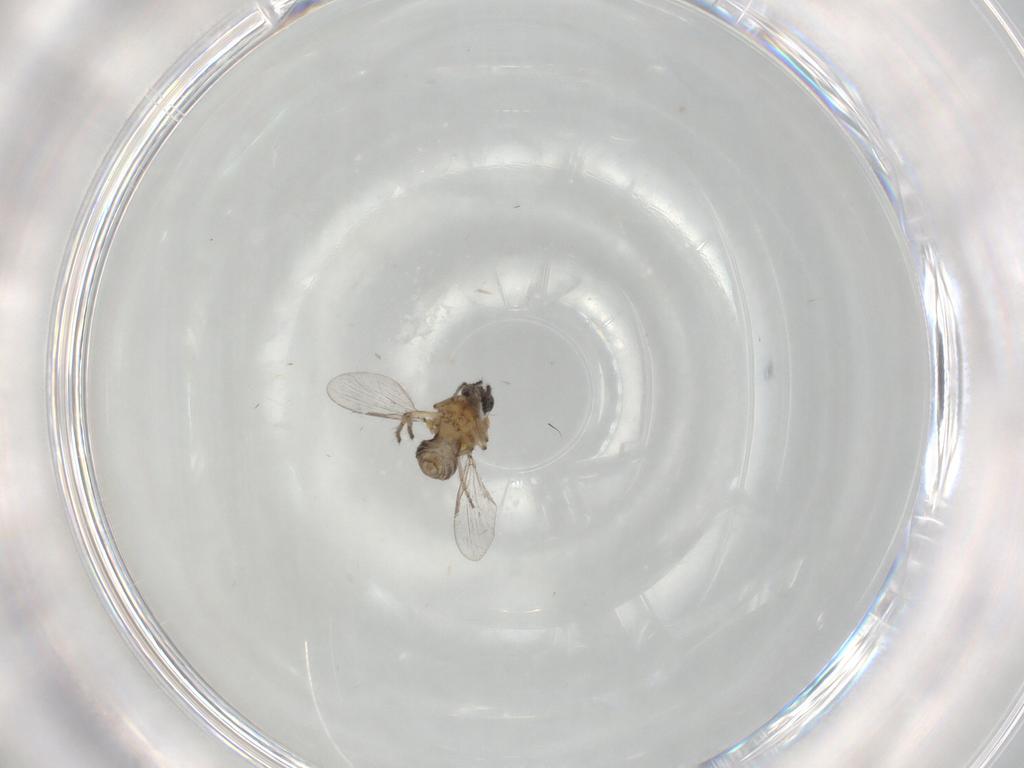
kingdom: Animalia
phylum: Arthropoda
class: Insecta
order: Diptera
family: Ceratopogonidae
